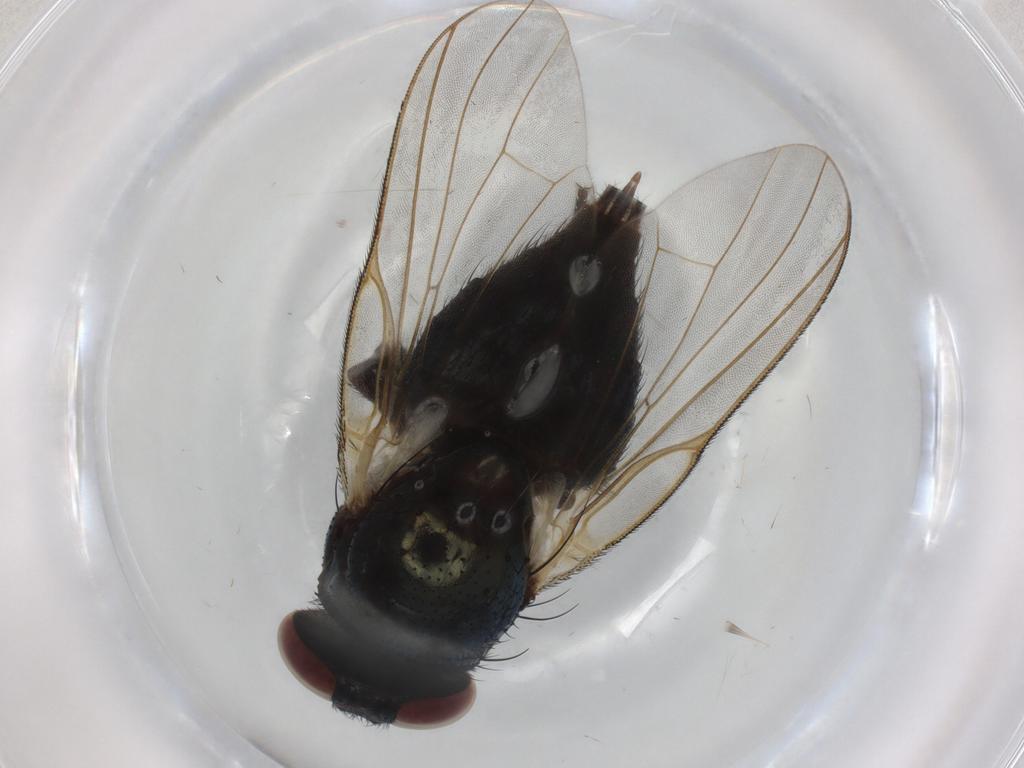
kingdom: Animalia
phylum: Arthropoda
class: Insecta
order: Diptera
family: Lonchaeidae
